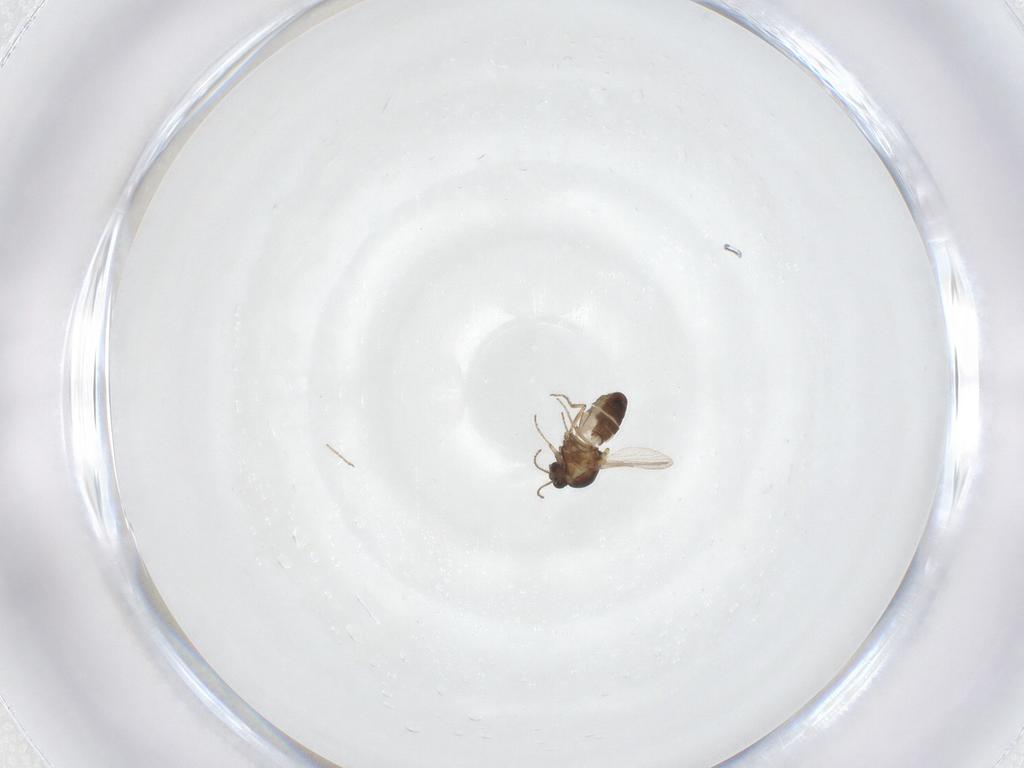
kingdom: Animalia
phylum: Arthropoda
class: Insecta
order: Diptera
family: Ceratopogonidae
